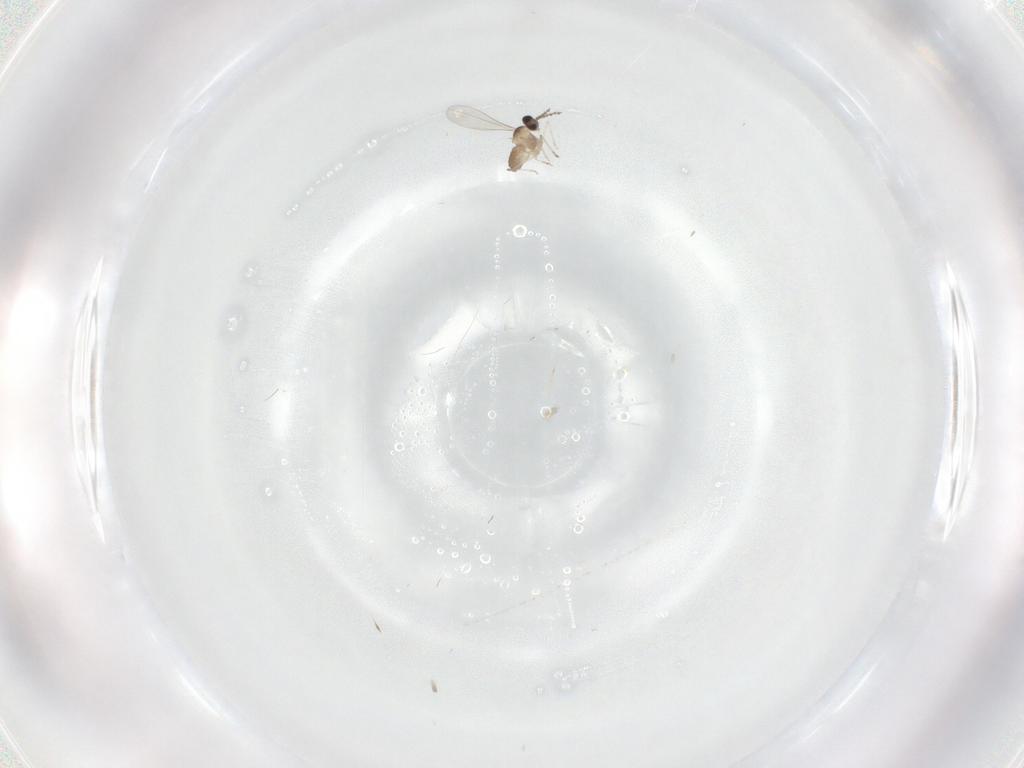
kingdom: Animalia
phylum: Arthropoda
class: Insecta
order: Diptera
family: Cecidomyiidae
